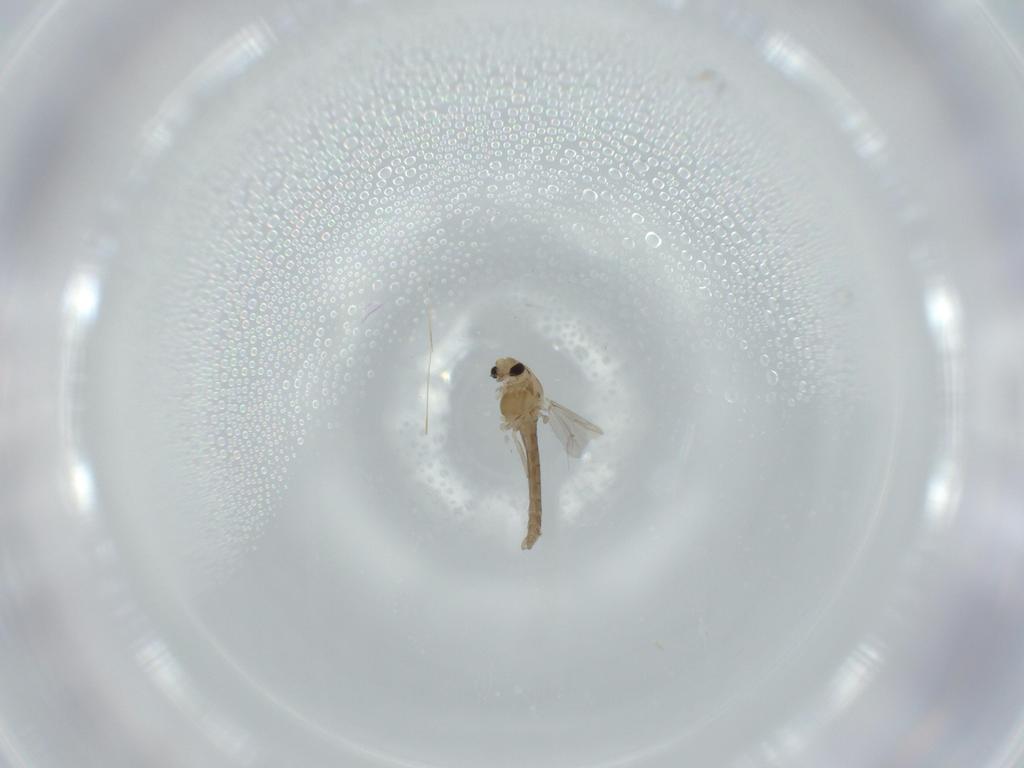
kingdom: Animalia
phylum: Arthropoda
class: Insecta
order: Diptera
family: Chironomidae
